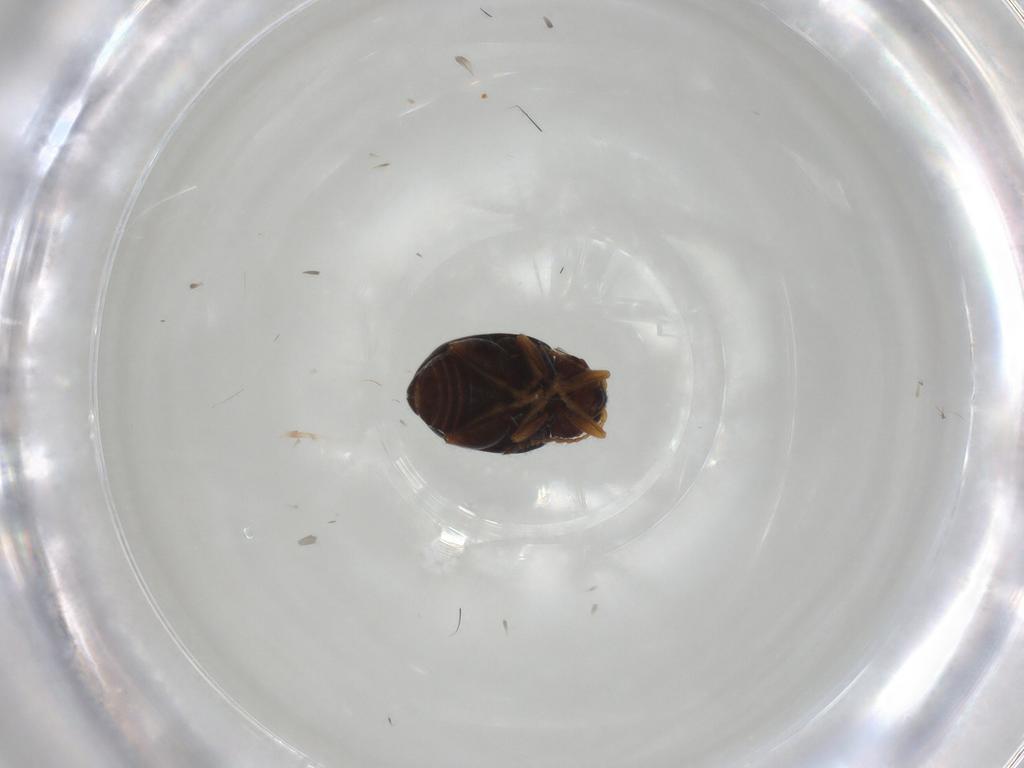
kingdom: Animalia
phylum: Arthropoda
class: Insecta
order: Coleoptera
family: Chrysomelidae
